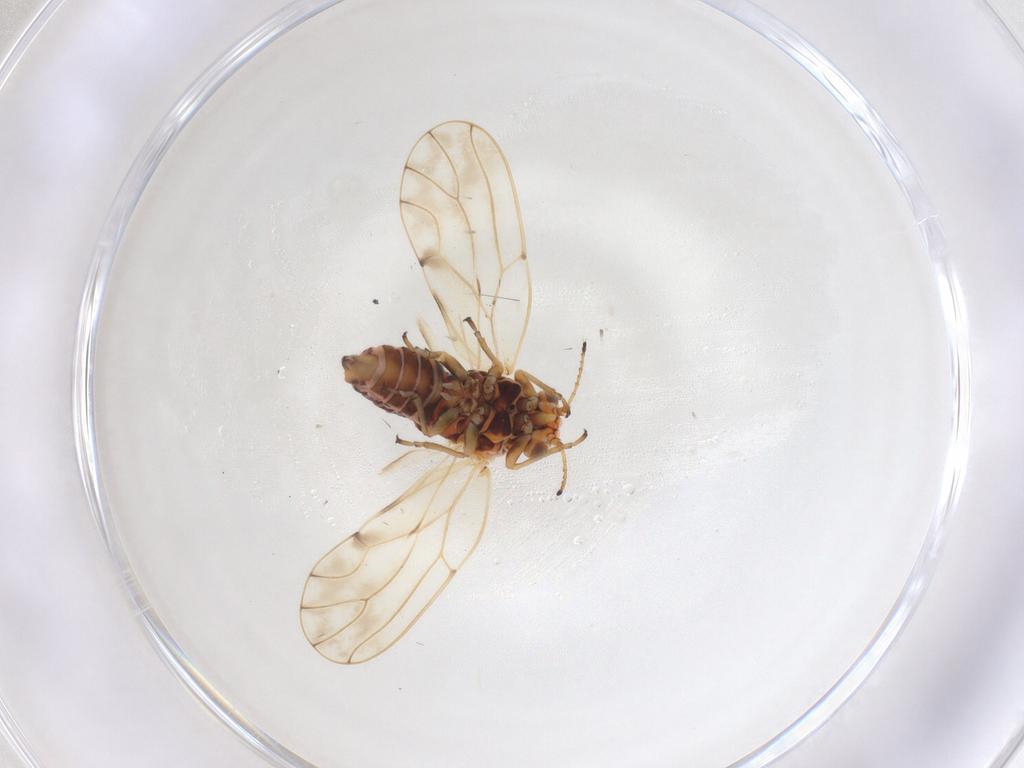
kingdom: Animalia
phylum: Arthropoda
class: Insecta
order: Hemiptera
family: Aphalaridae
